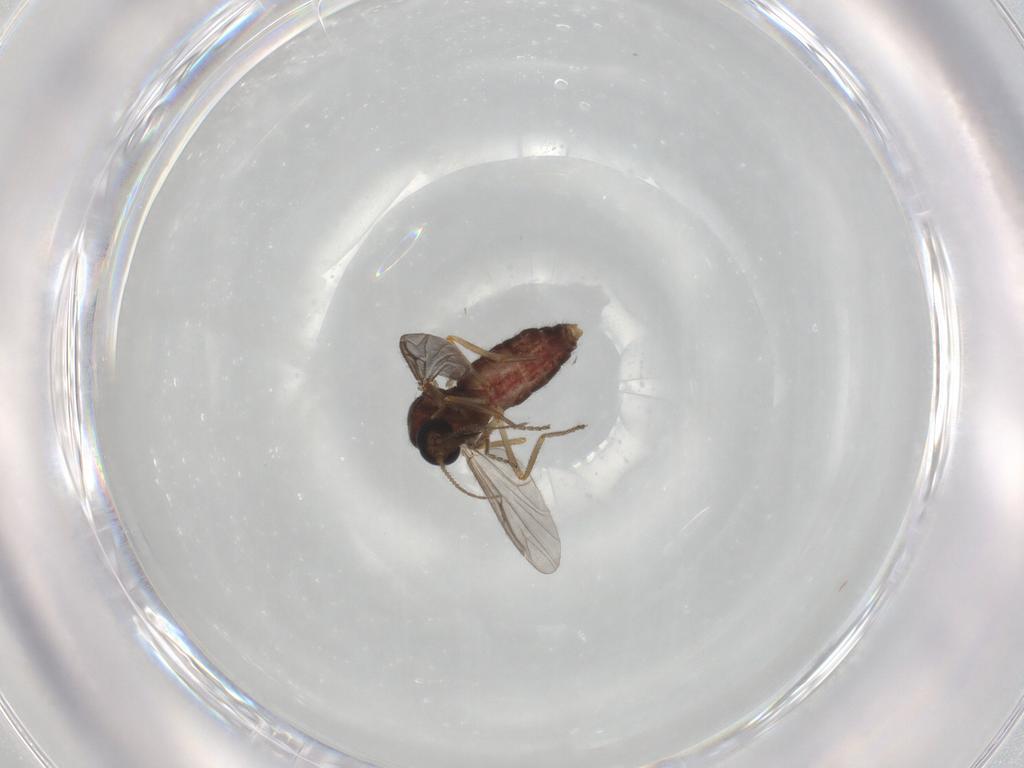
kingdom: Animalia
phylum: Arthropoda
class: Insecta
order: Diptera
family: Ceratopogonidae
